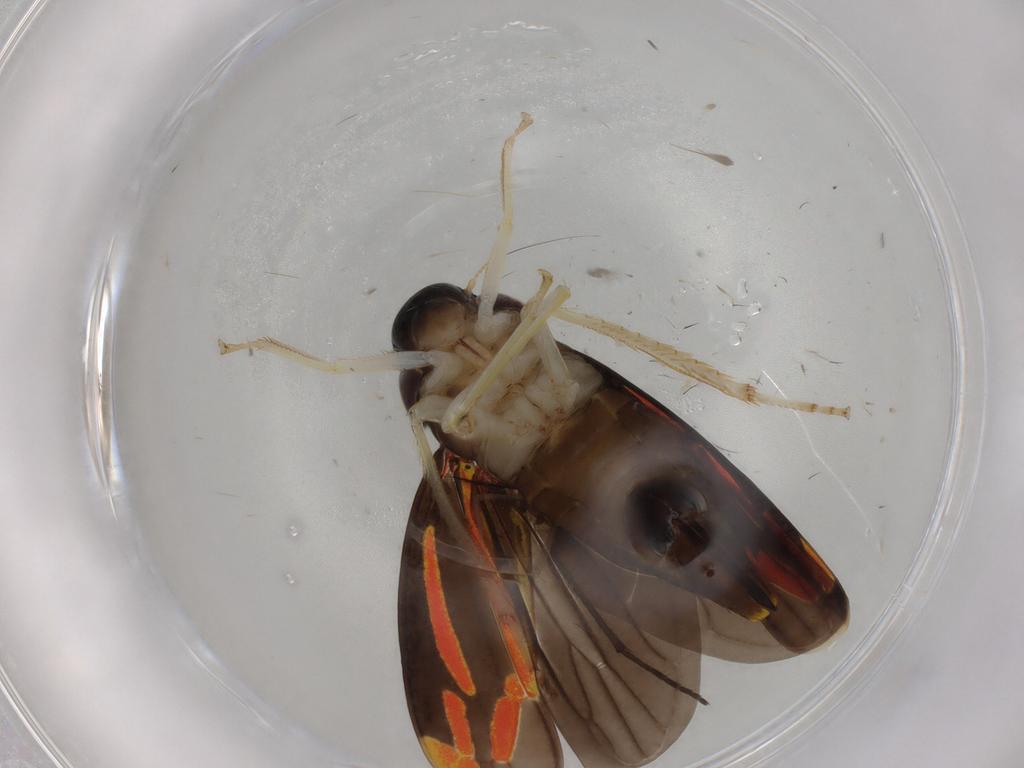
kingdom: Animalia
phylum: Arthropoda
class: Insecta
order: Hemiptera
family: Cicadellidae
